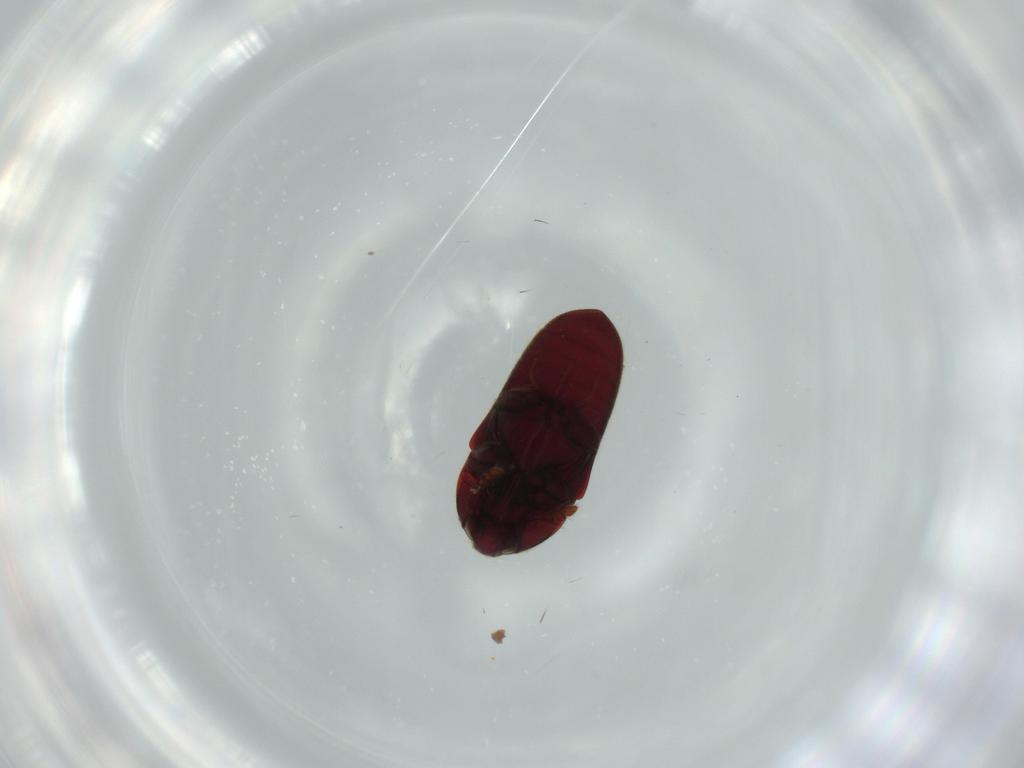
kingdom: Animalia
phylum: Arthropoda
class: Insecta
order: Coleoptera
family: Throscidae
